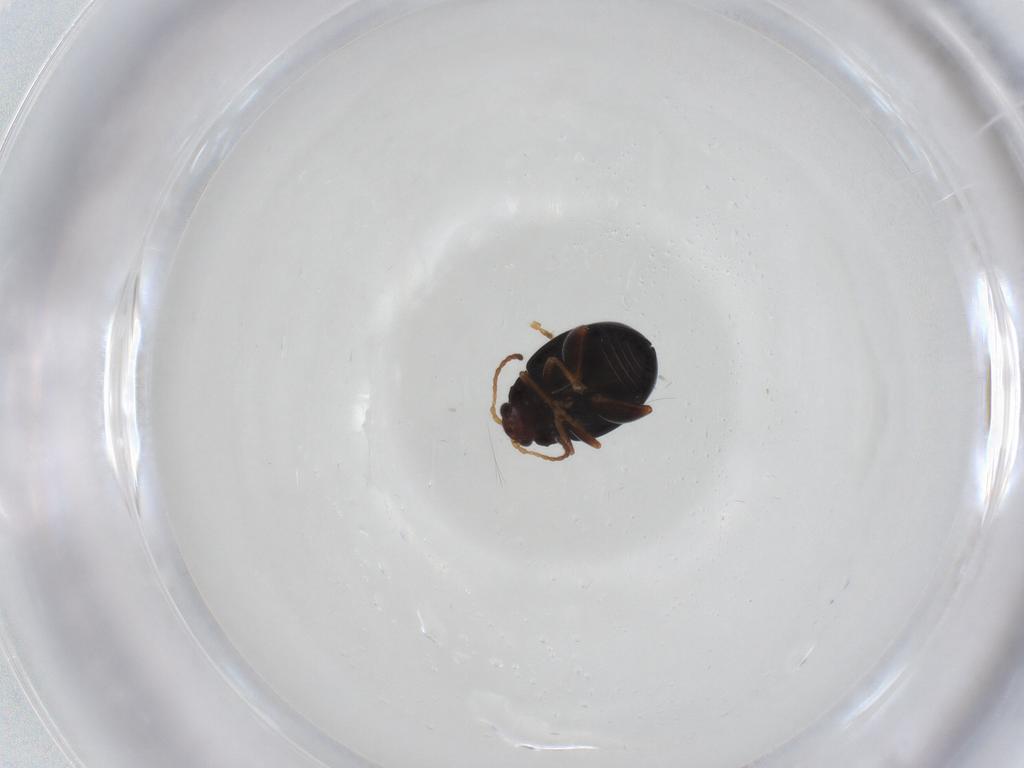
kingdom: Animalia
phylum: Arthropoda
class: Insecta
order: Coleoptera
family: Chrysomelidae
